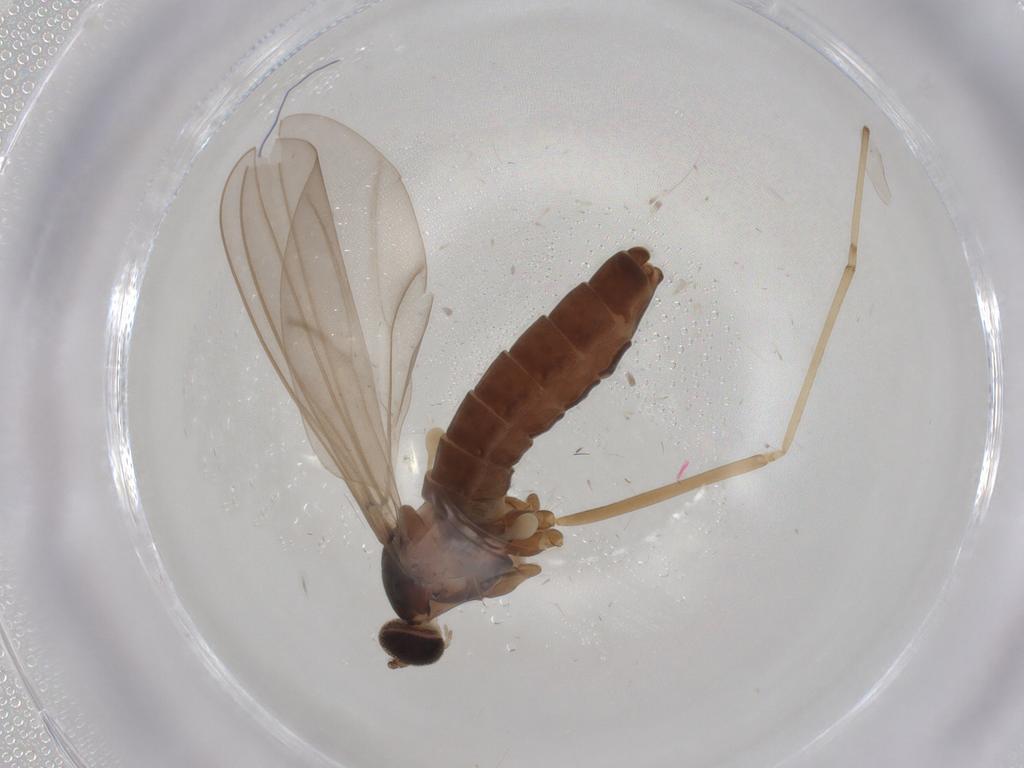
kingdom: Animalia
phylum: Arthropoda
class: Insecta
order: Diptera
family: Cecidomyiidae
